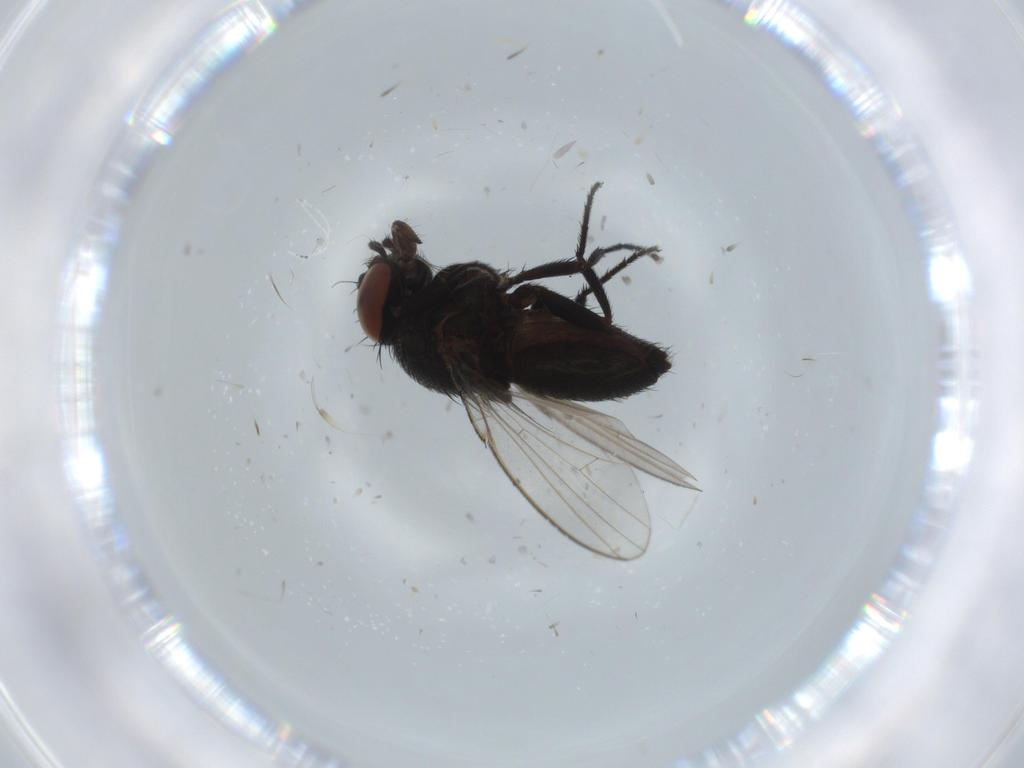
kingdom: Animalia
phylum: Arthropoda
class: Insecta
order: Diptera
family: Milichiidae
